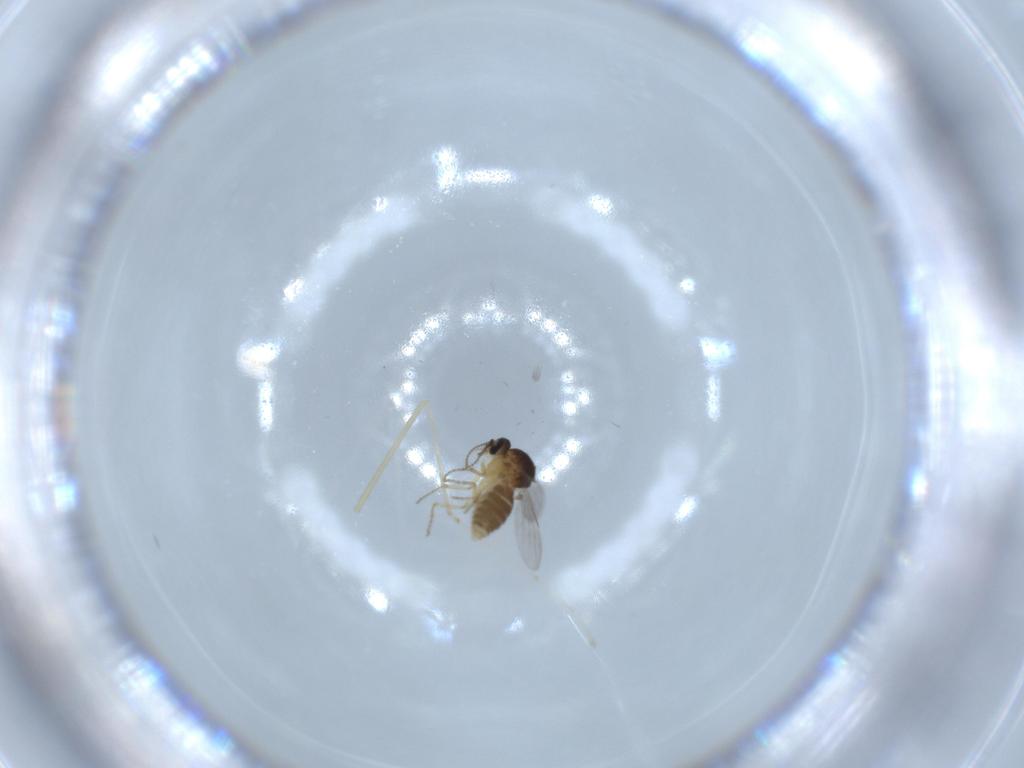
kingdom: Animalia
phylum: Arthropoda
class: Insecta
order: Diptera
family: Ceratopogonidae
